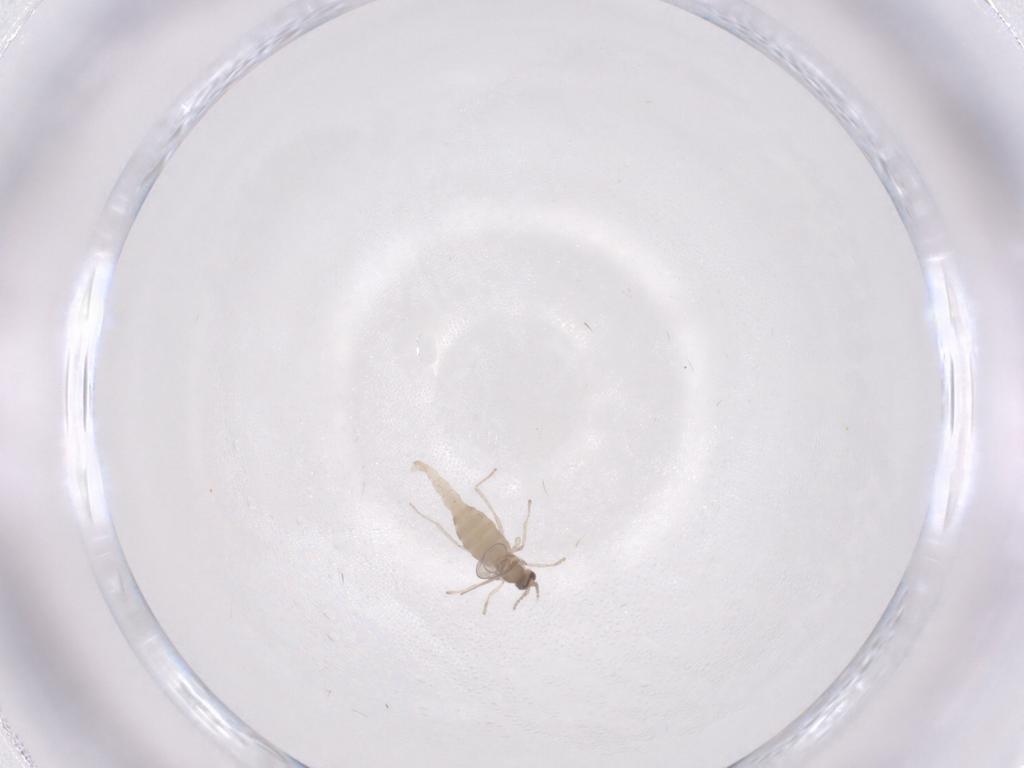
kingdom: Animalia
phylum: Arthropoda
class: Insecta
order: Diptera
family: Cecidomyiidae
